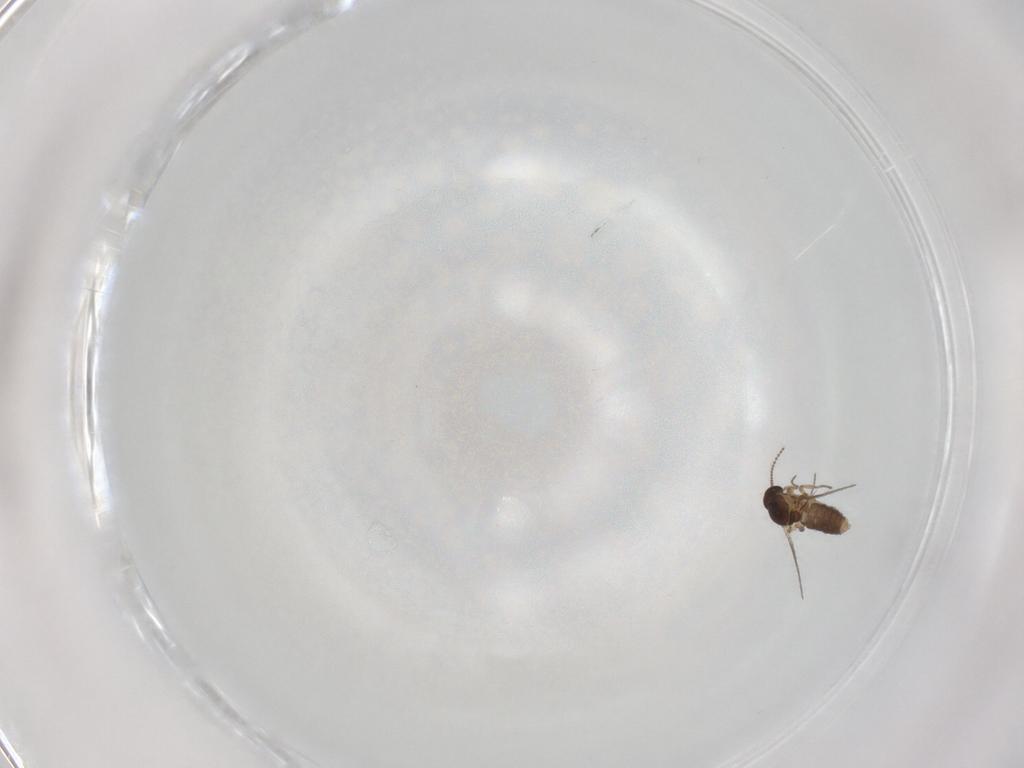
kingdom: Animalia
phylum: Arthropoda
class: Insecta
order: Diptera
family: Ceratopogonidae
